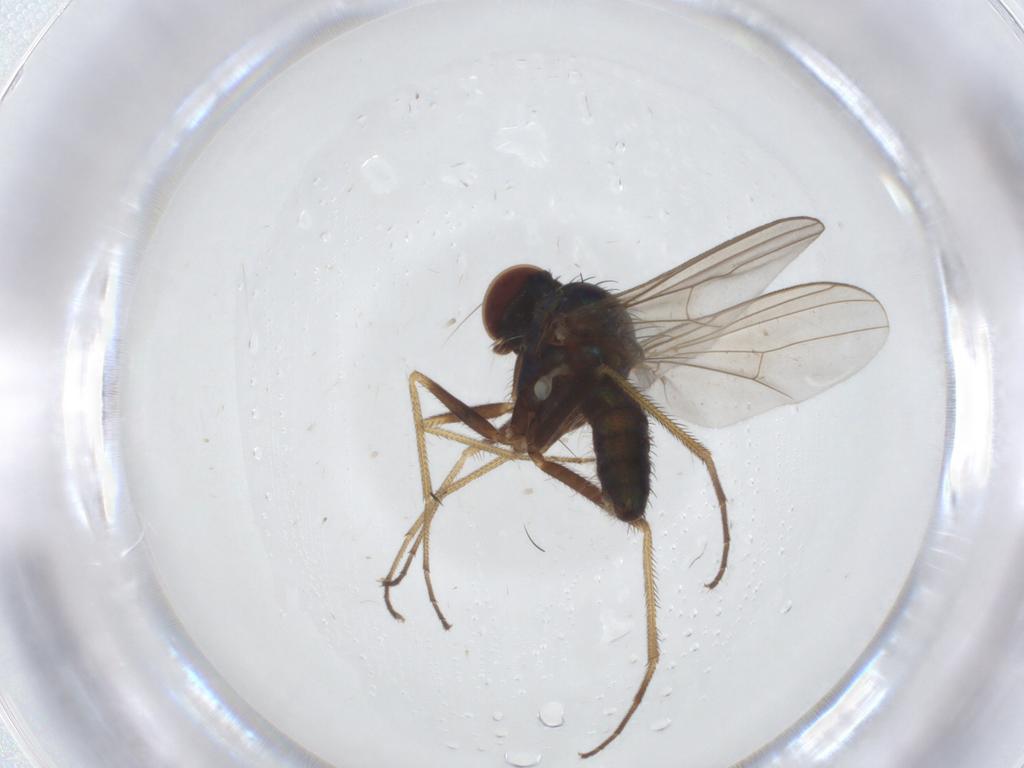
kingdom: Animalia
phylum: Arthropoda
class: Insecta
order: Diptera
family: Dolichopodidae
